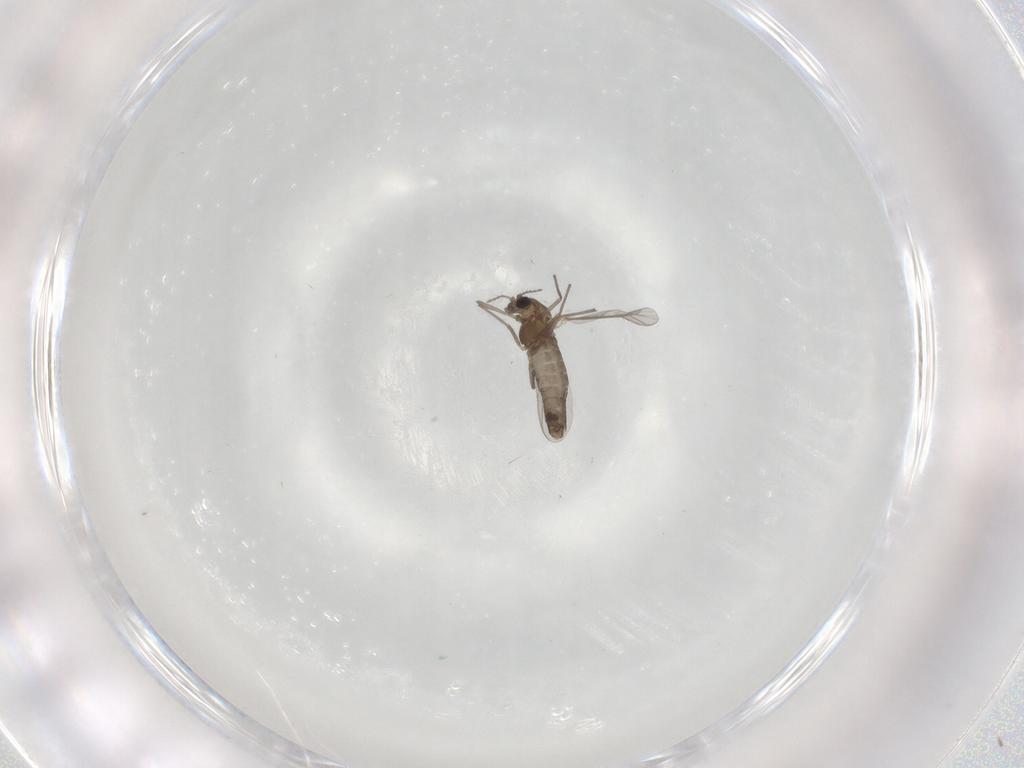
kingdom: Animalia
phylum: Arthropoda
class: Insecta
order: Diptera
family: Chironomidae
